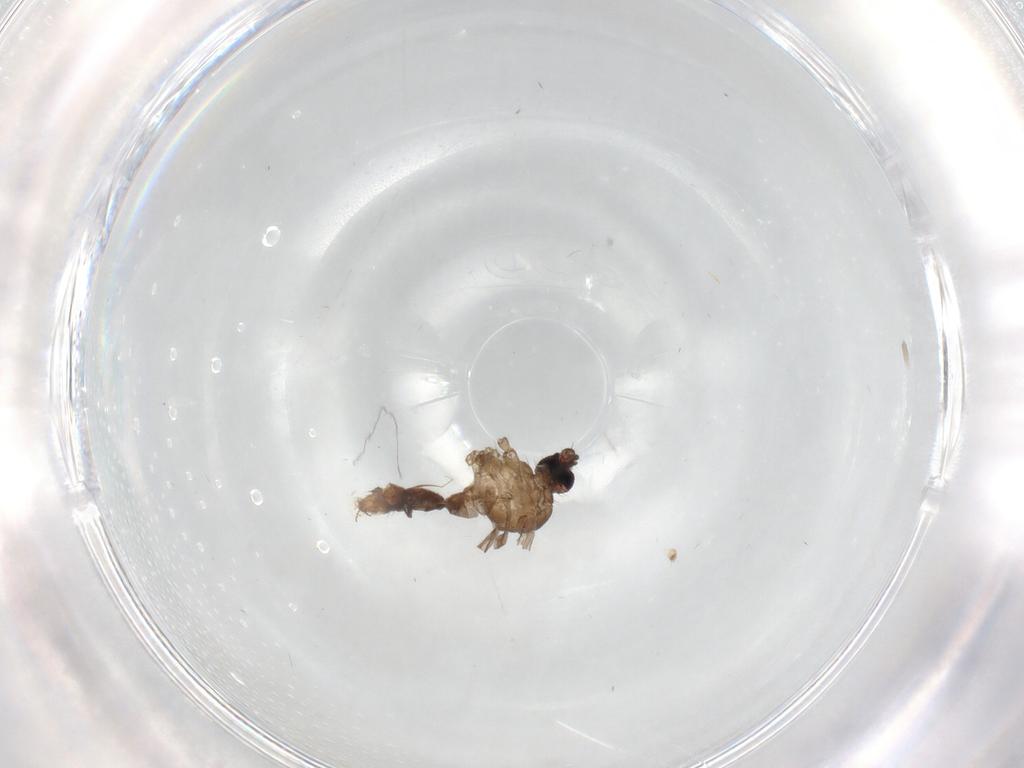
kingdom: Animalia
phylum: Arthropoda
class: Insecta
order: Diptera
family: Phoridae
